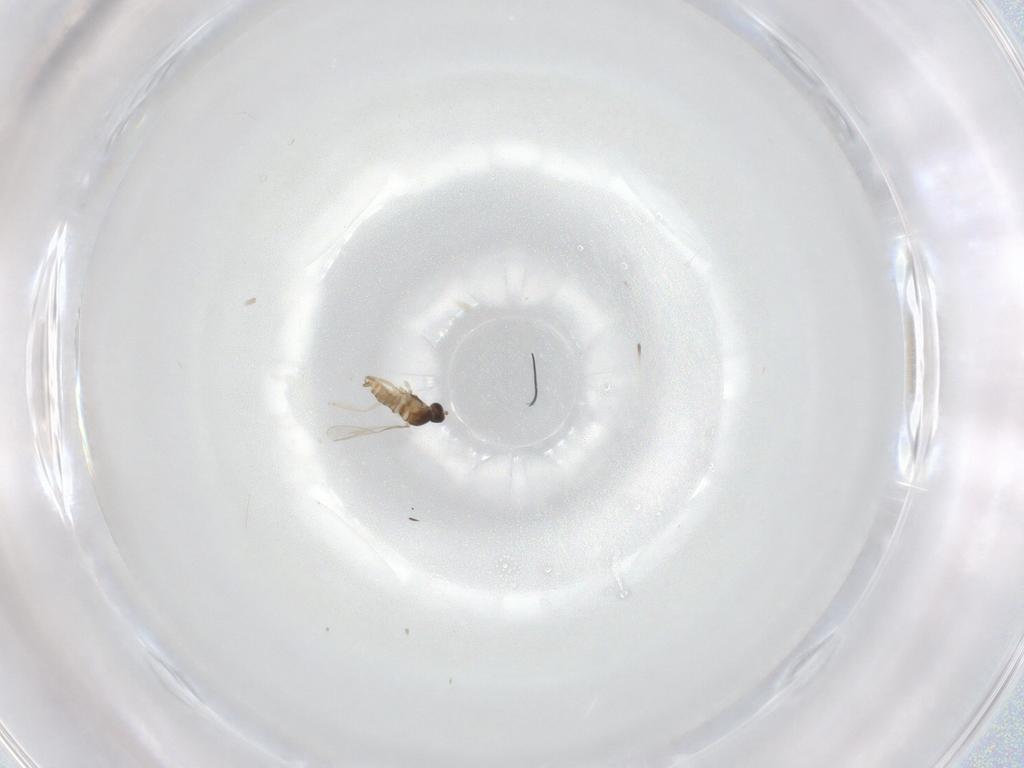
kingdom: Animalia
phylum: Arthropoda
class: Insecta
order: Diptera
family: Cecidomyiidae
